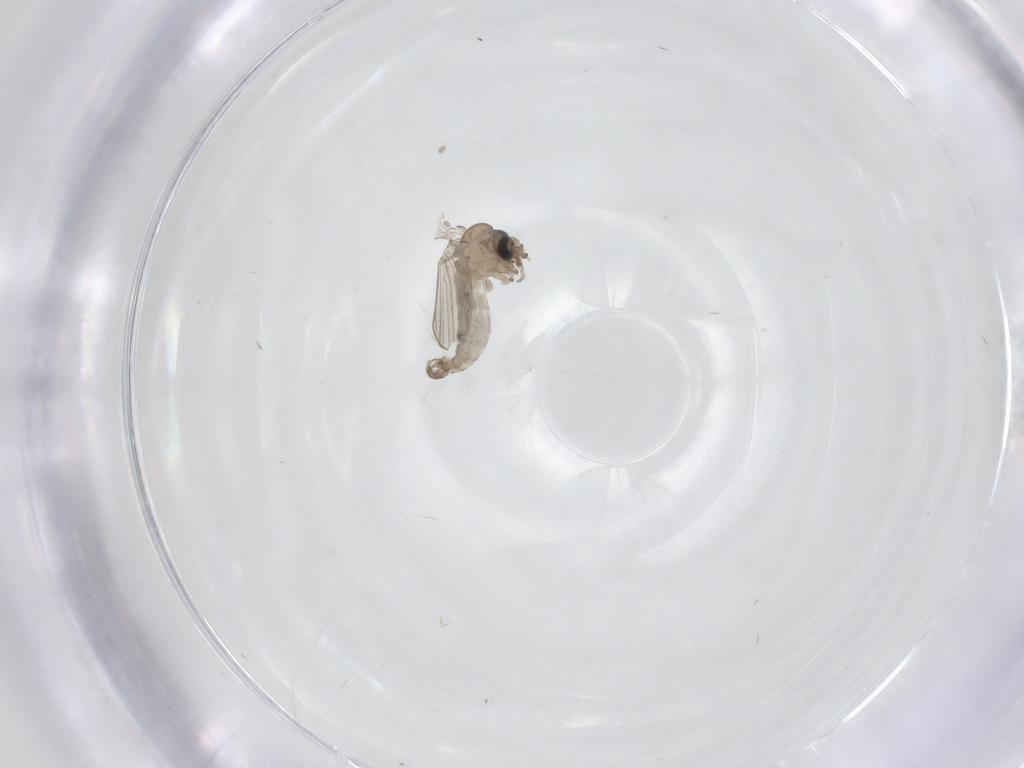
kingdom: Animalia
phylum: Arthropoda
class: Insecta
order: Diptera
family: Psychodidae
